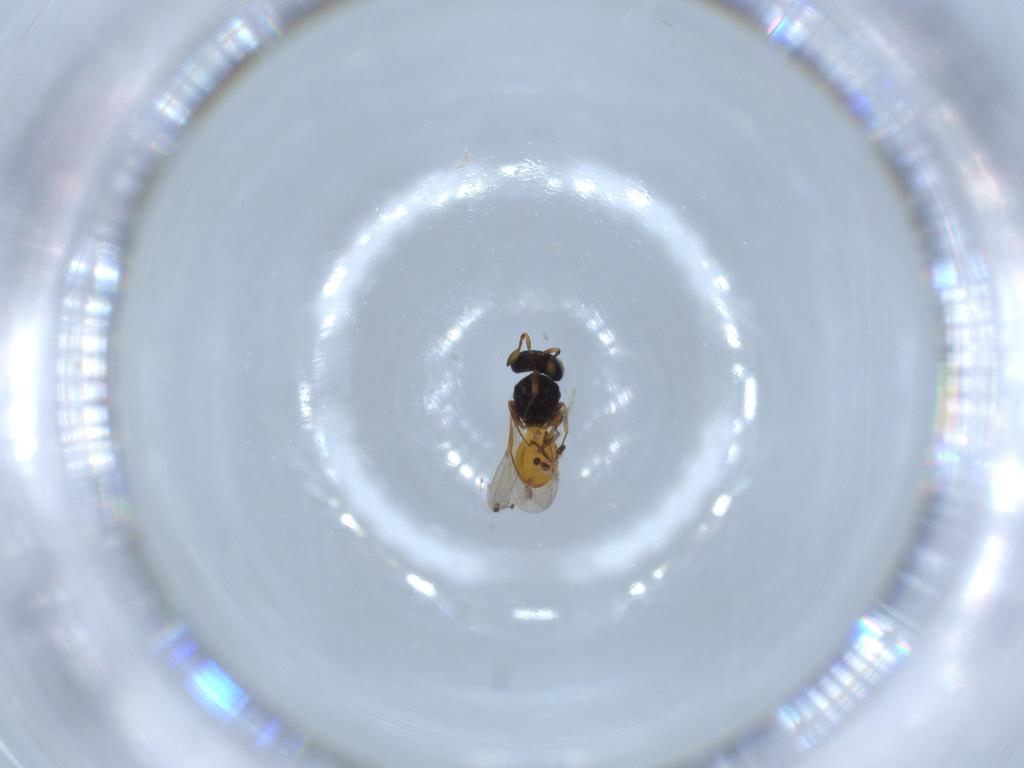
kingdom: Animalia
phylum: Arthropoda
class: Insecta
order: Hymenoptera
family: Scelionidae
